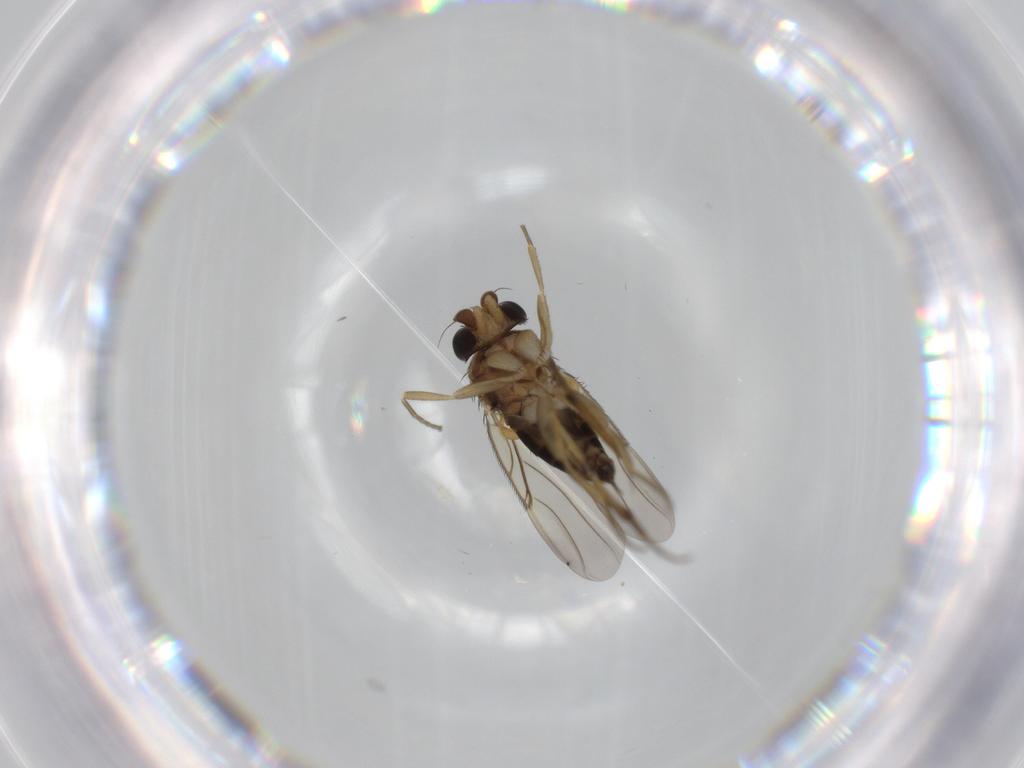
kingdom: Animalia
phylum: Arthropoda
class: Insecta
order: Diptera
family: Phoridae
